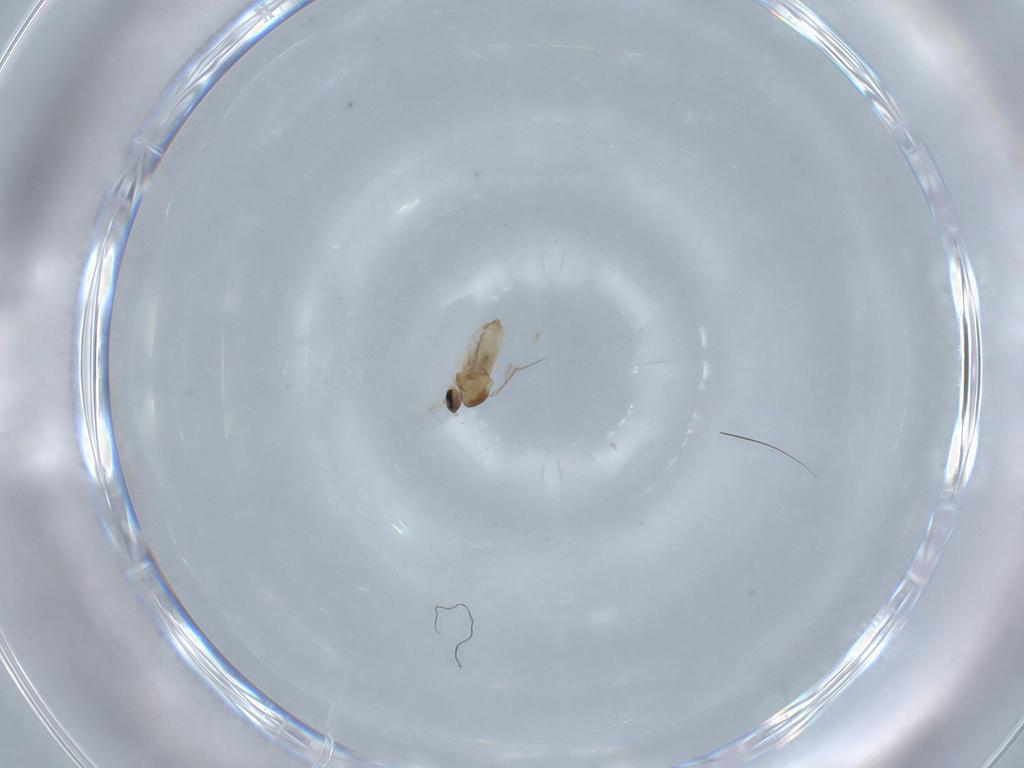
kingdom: Animalia
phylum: Arthropoda
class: Insecta
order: Diptera
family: Cecidomyiidae
